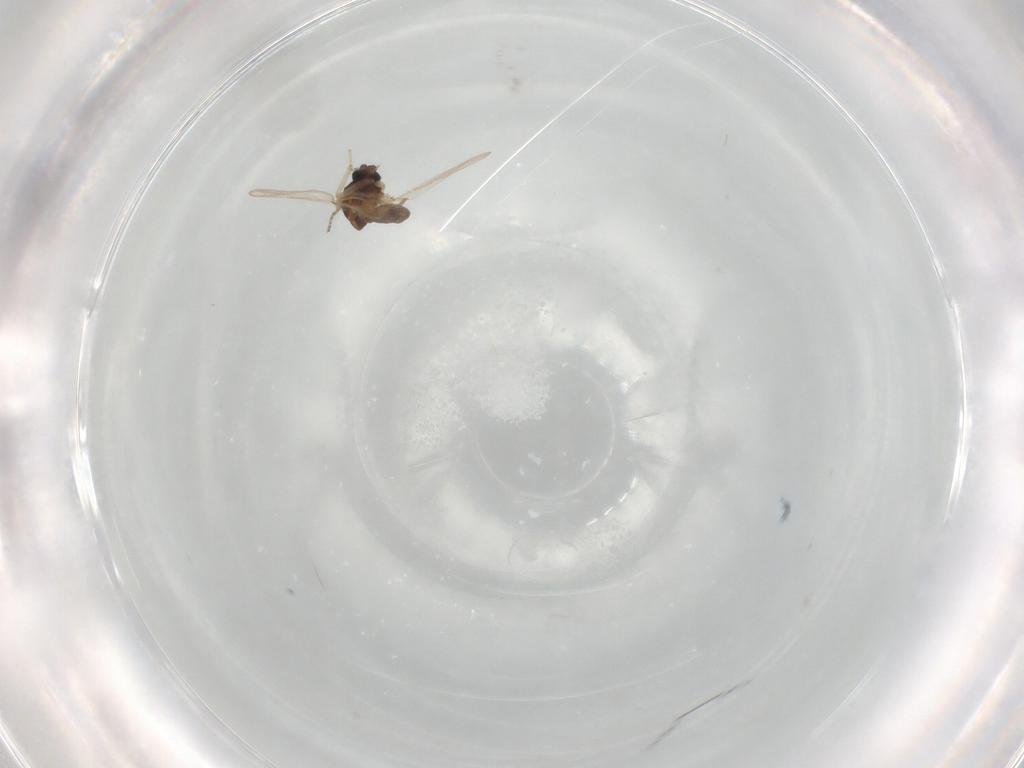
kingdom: Animalia
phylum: Arthropoda
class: Insecta
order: Diptera
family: Ceratopogonidae
